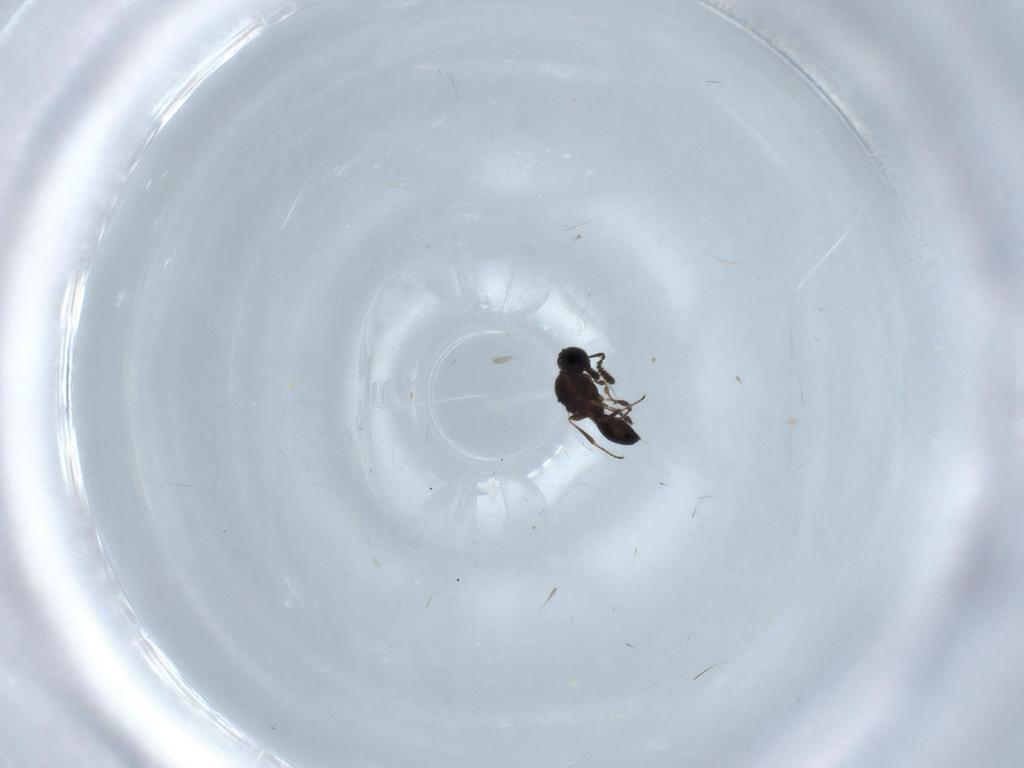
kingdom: Animalia
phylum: Arthropoda
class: Insecta
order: Hymenoptera
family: Platygastridae
